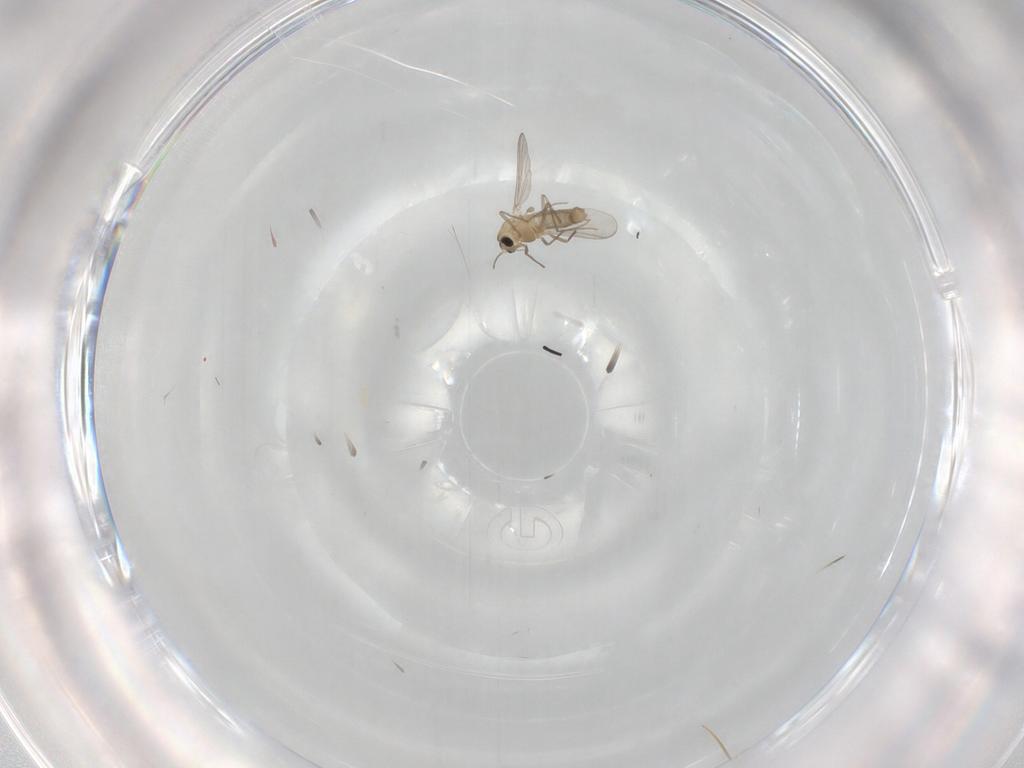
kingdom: Animalia
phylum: Arthropoda
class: Insecta
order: Diptera
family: Chironomidae
